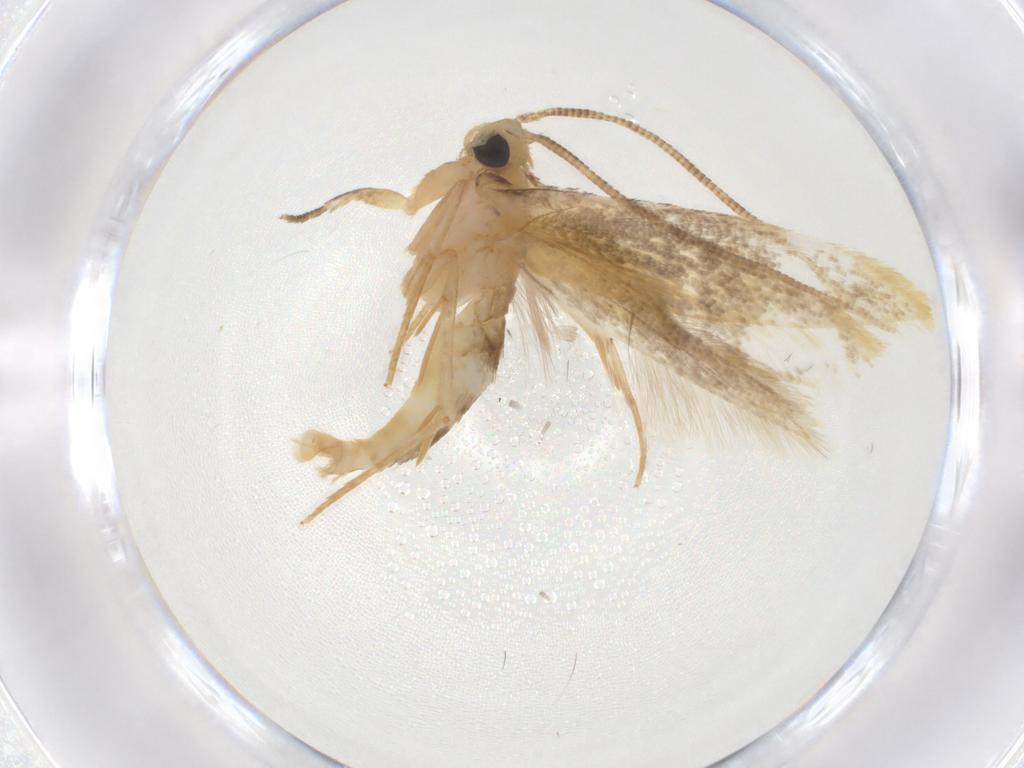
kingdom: Animalia
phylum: Arthropoda
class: Insecta
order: Lepidoptera
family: Tineidae
